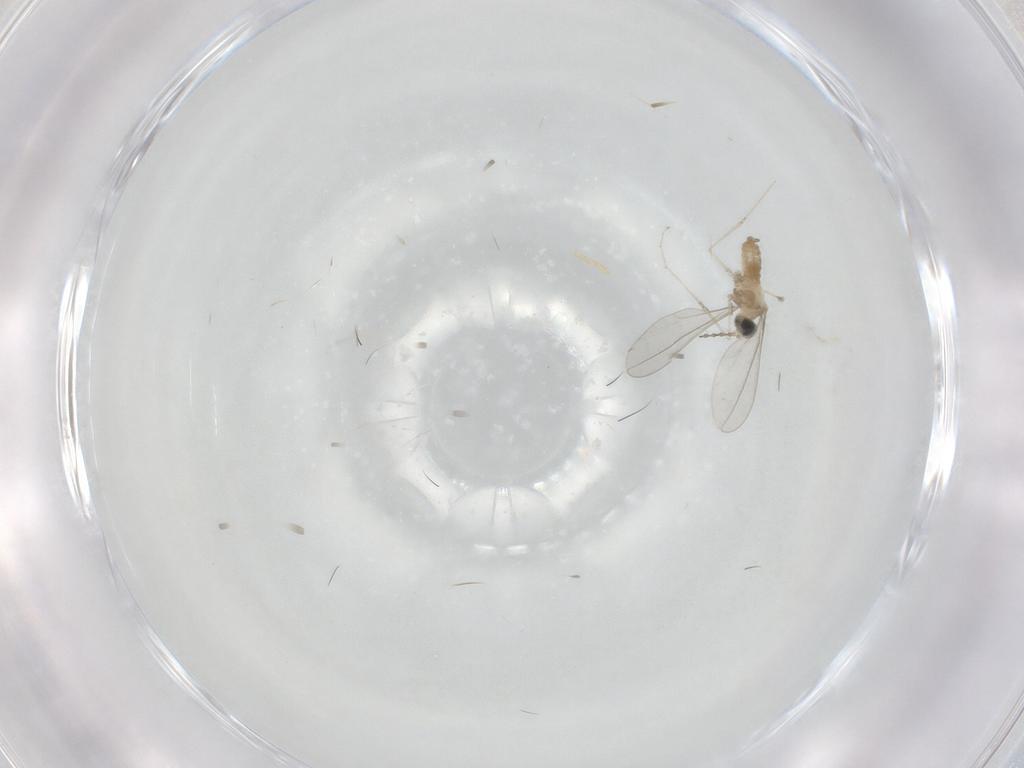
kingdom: Animalia
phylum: Arthropoda
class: Insecta
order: Diptera
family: Cecidomyiidae
